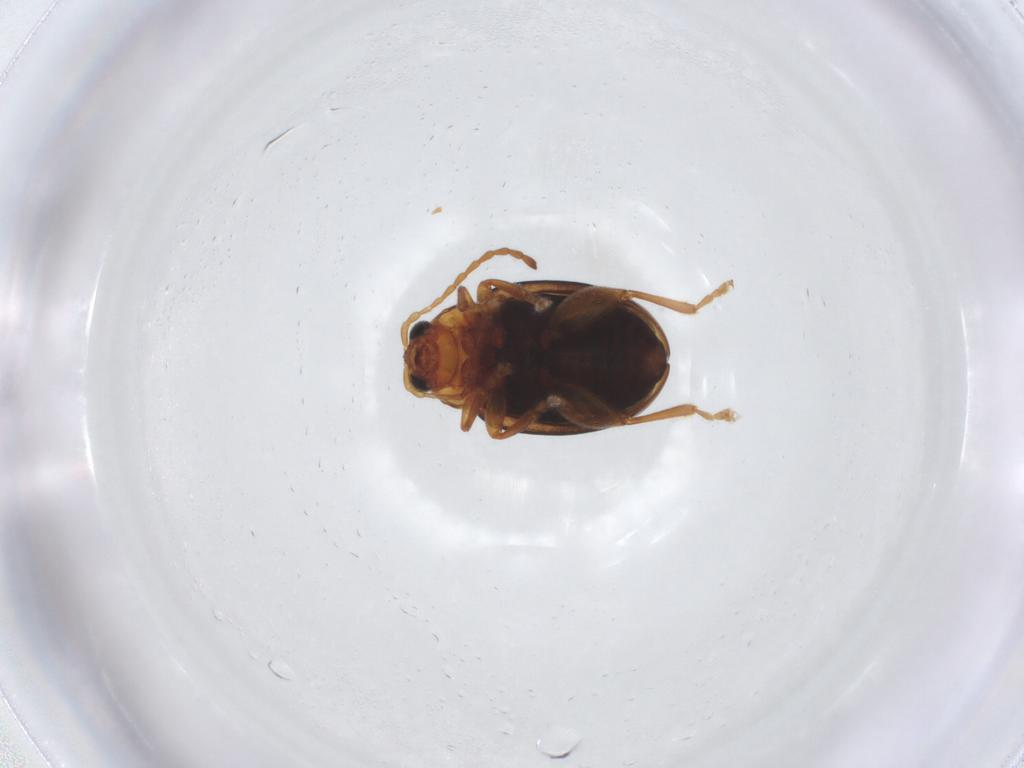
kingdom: Animalia
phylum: Arthropoda
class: Insecta
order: Coleoptera
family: Chrysomelidae
